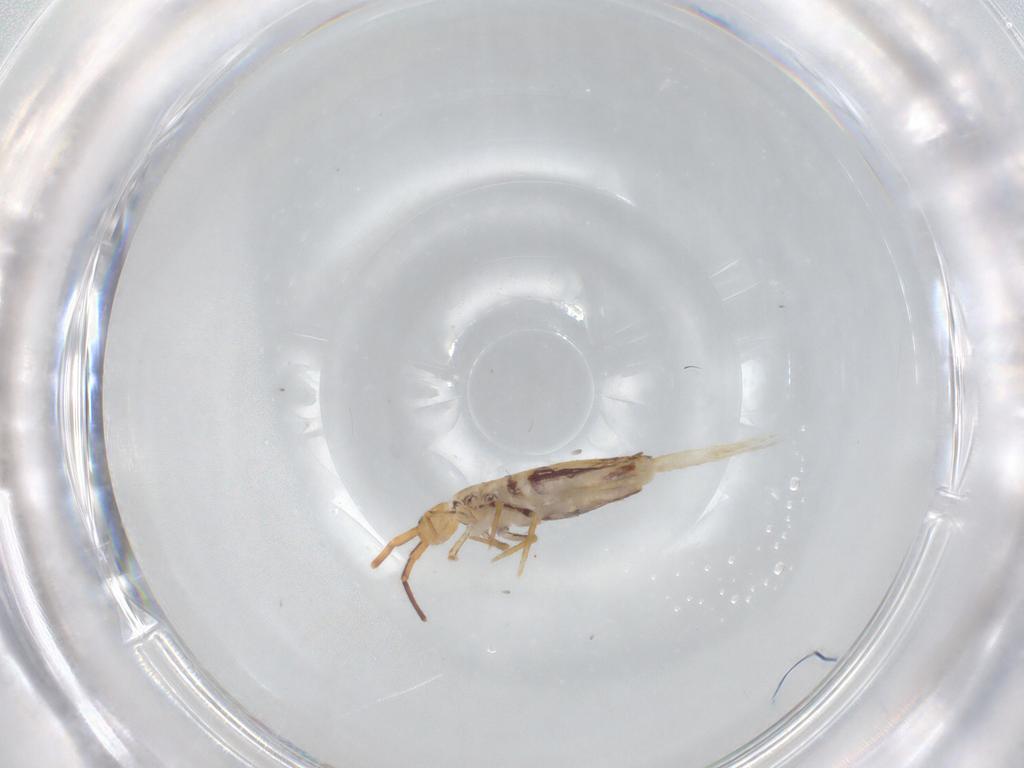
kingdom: Animalia
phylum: Arthropoda
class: Collembola
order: Poduromorpha
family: Hypogastruridae
